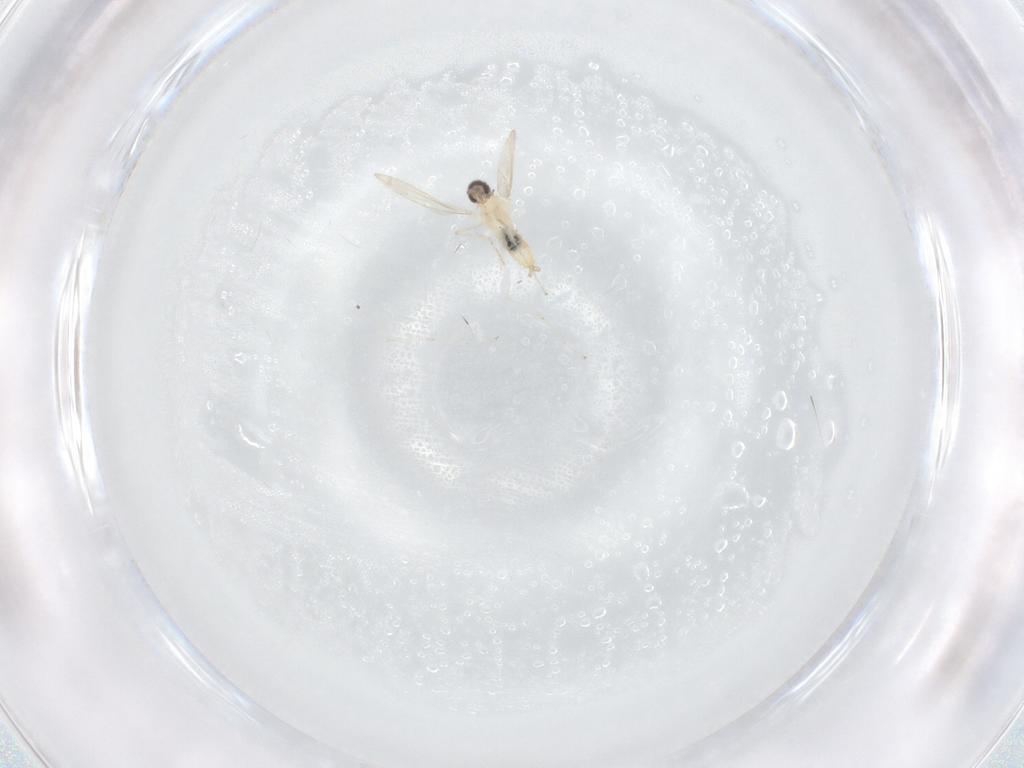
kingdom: Animalia
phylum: Arthropoda
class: Insecta
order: Diptera
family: Ceratopogonidae
